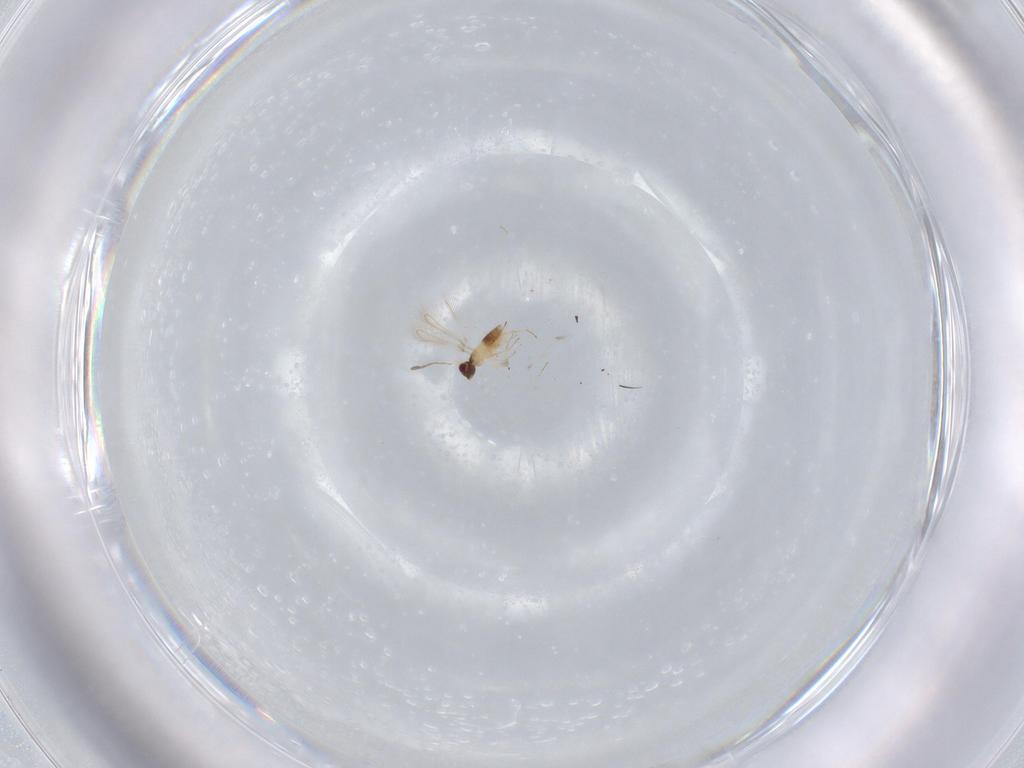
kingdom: Animalia
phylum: Arthropoda
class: Insecta
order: Hymenoptera
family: Mymaridae
